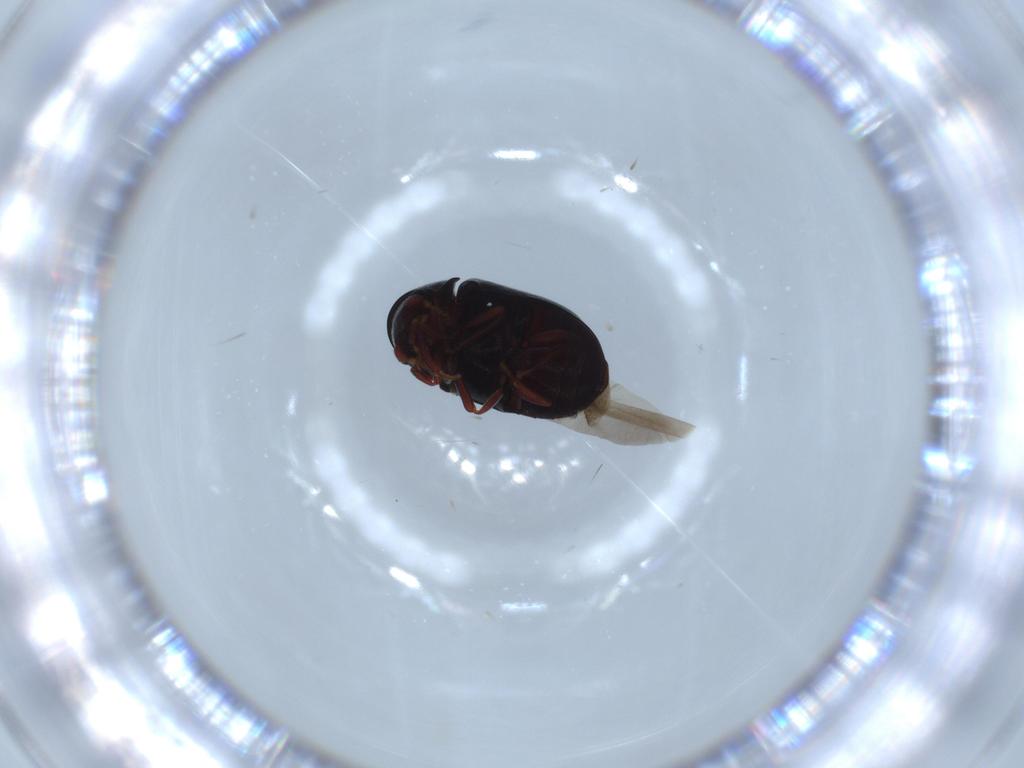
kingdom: Animalia
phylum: Arthropoda
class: Insecta
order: Coleoptera
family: Chrysomelidae
